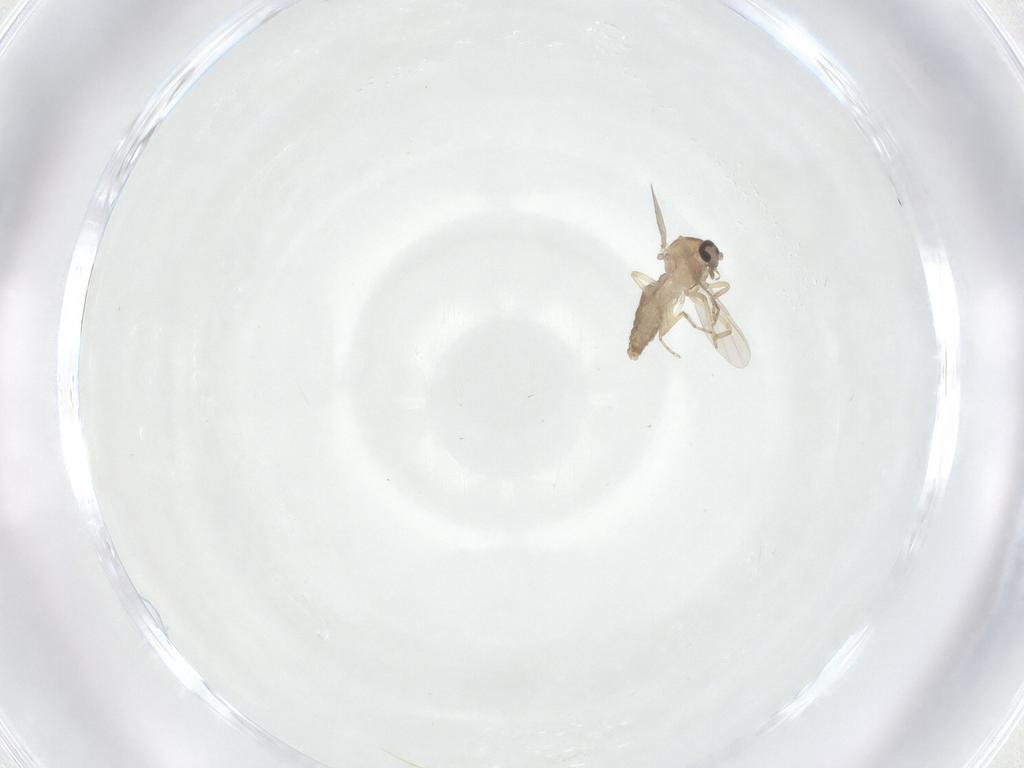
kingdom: Animalia
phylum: Arthropoda
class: Insecta
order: Diptera
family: Ceratopogonidae
